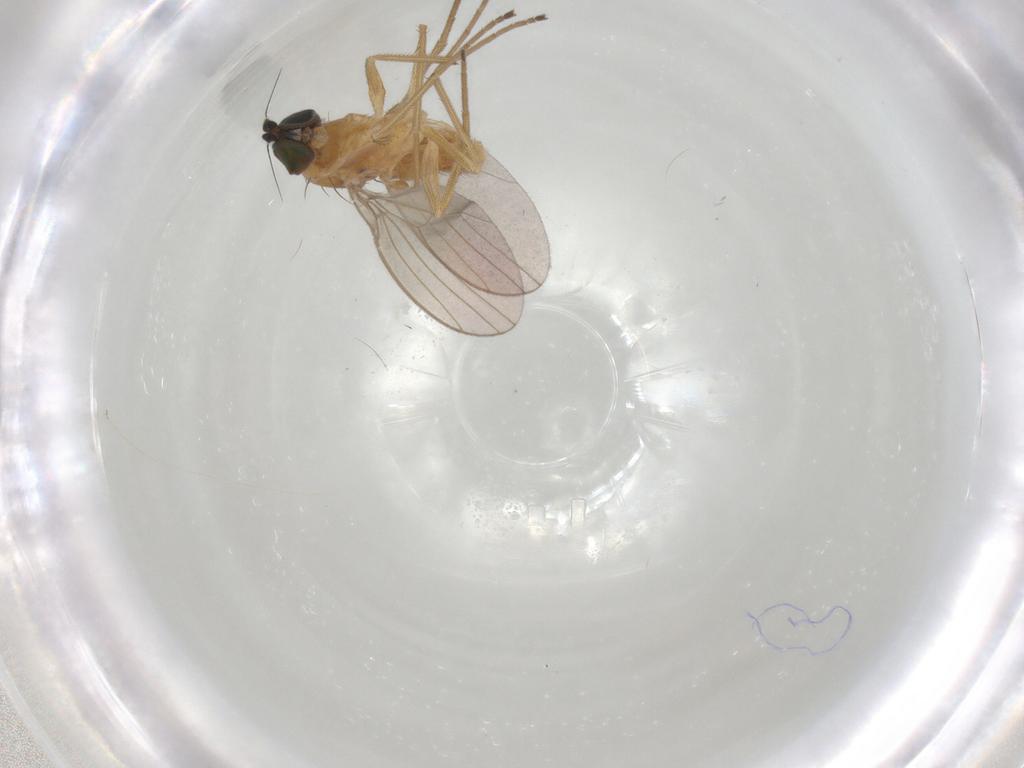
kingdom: Animalia
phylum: Arthropoda
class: Insecta
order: Diptera
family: Dolichopodidae
